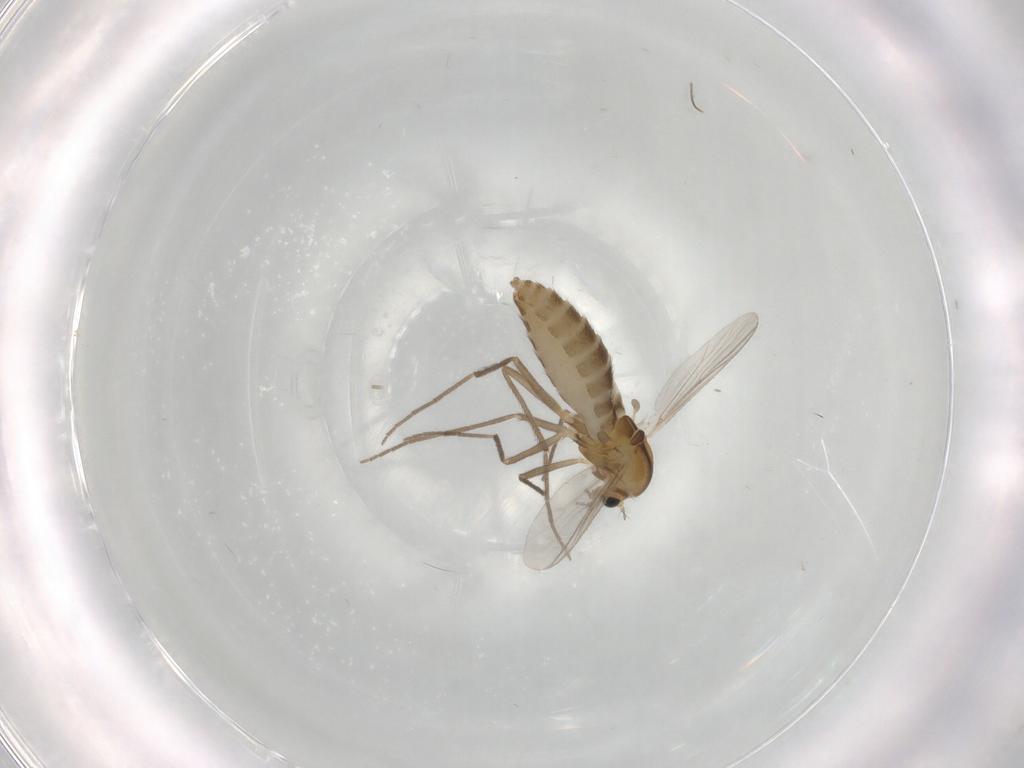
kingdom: Animalia
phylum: Arthropoda
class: Insecta
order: Diptera
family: Chironomidae
